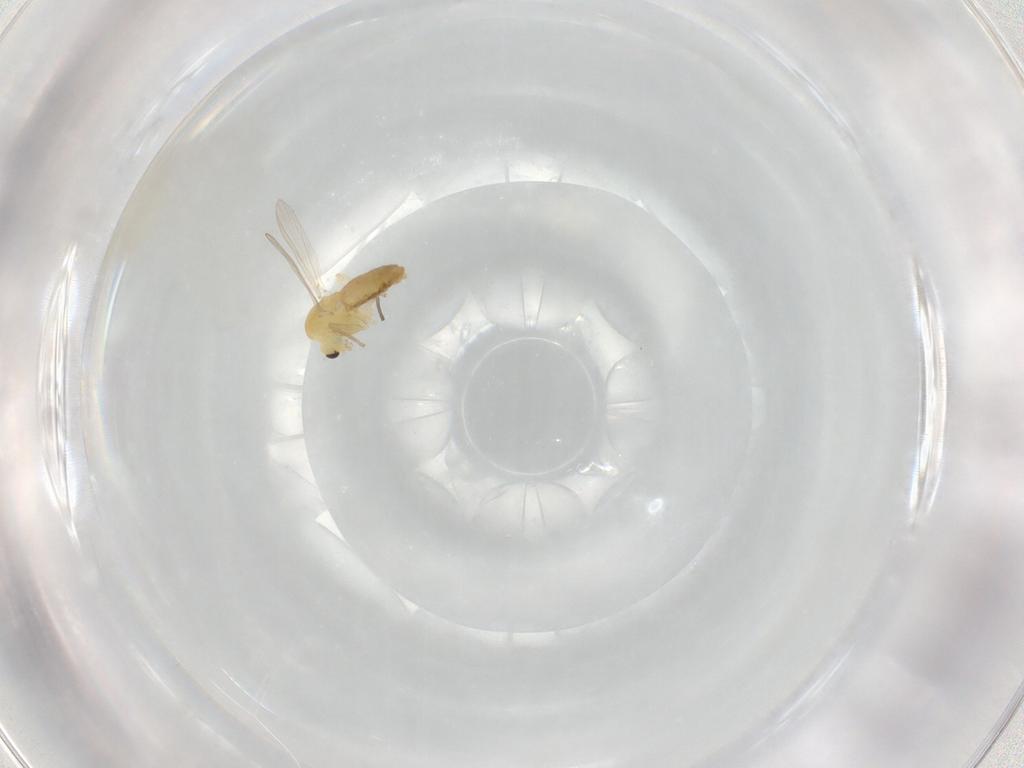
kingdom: Animalia
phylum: Arthropoda
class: Insecta
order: Diptera
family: Chironomidae
